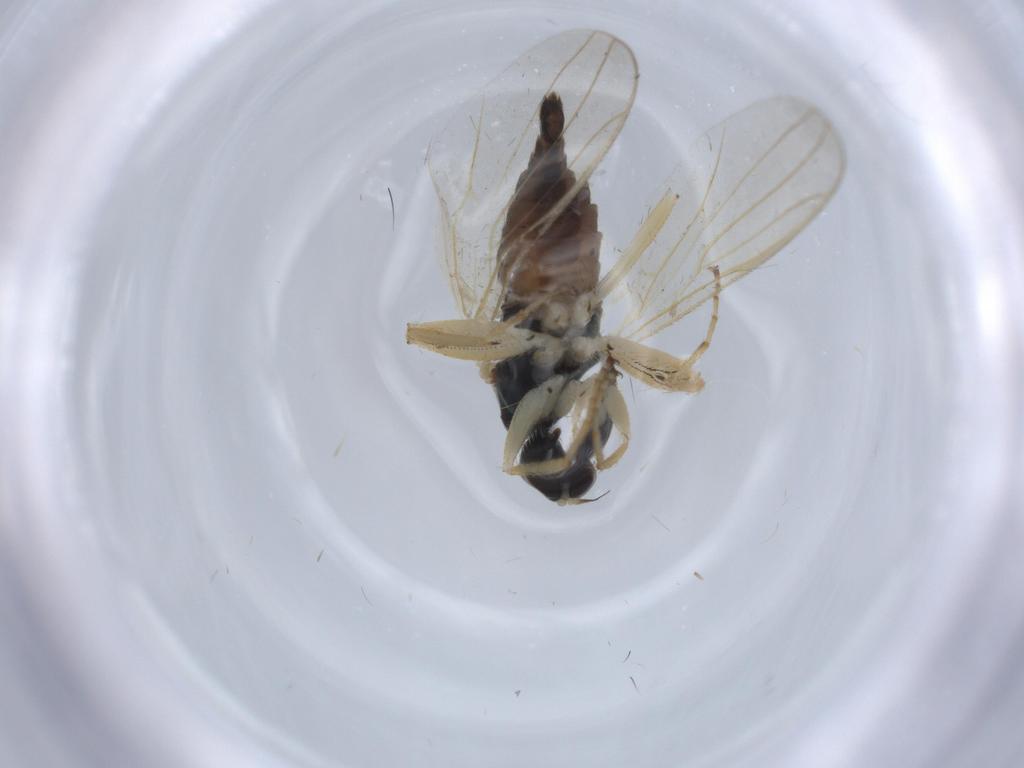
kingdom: Animalia
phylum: Arthropoda
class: Insecta
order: Diptera
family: Hybotidae
